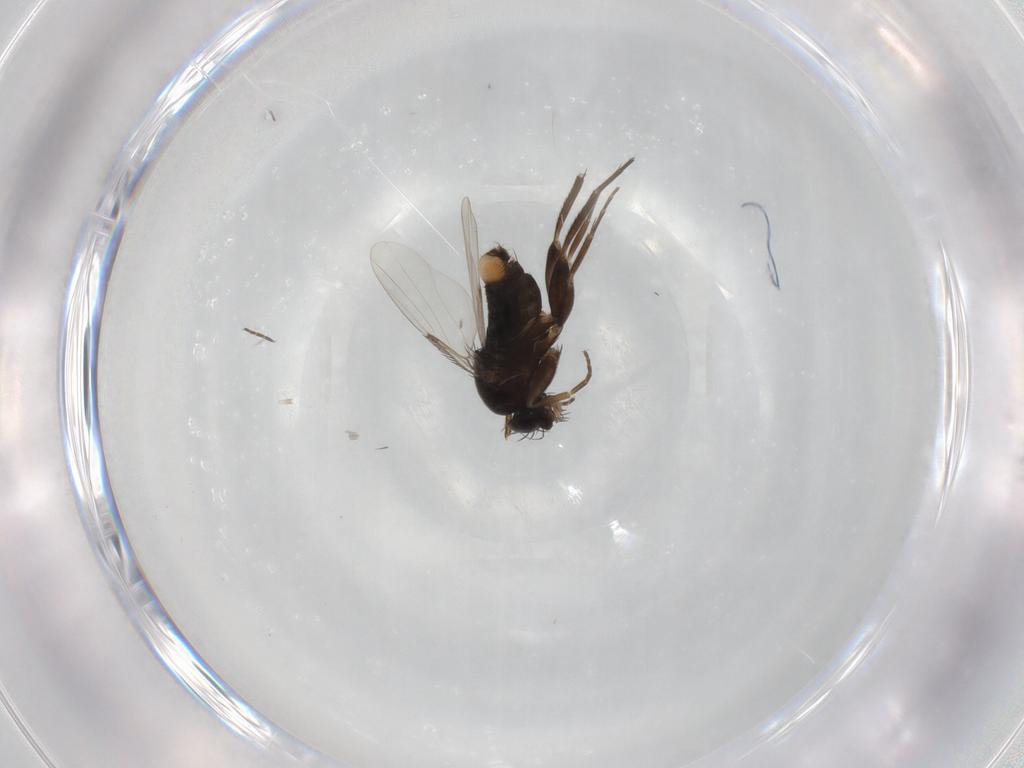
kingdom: Animalia
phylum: Arthropoda
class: Insecta
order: Diptera
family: Phoridae
